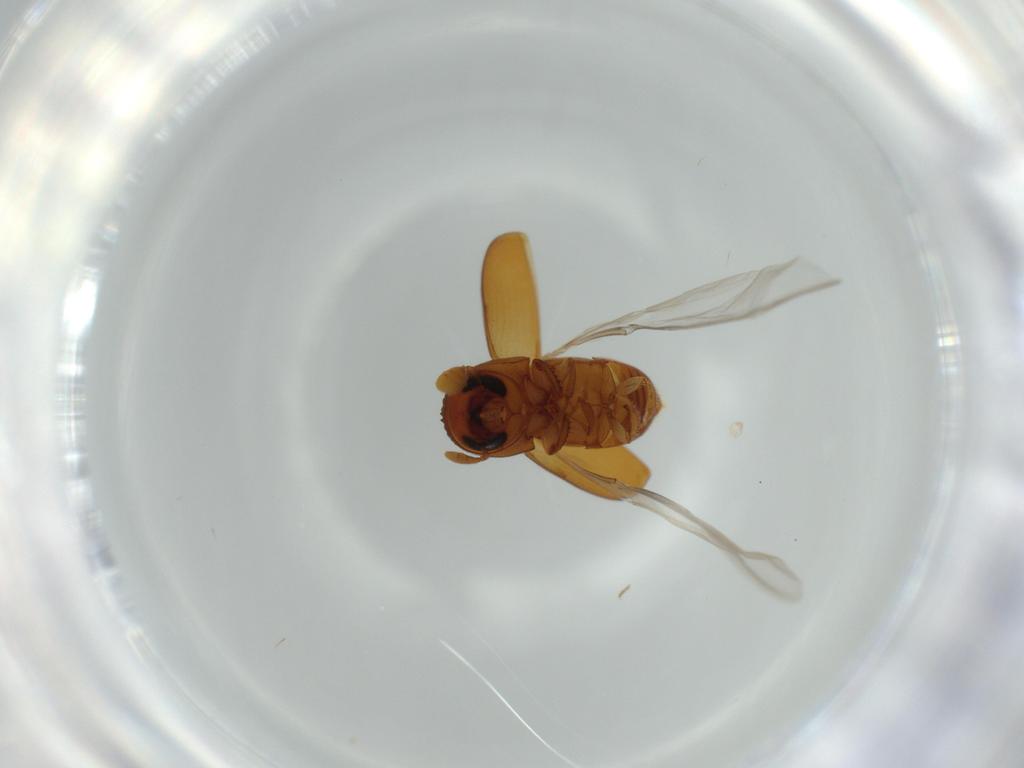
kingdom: Animalia
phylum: Arthropoda
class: Insecta
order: Coleoptera
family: Curculionidae
